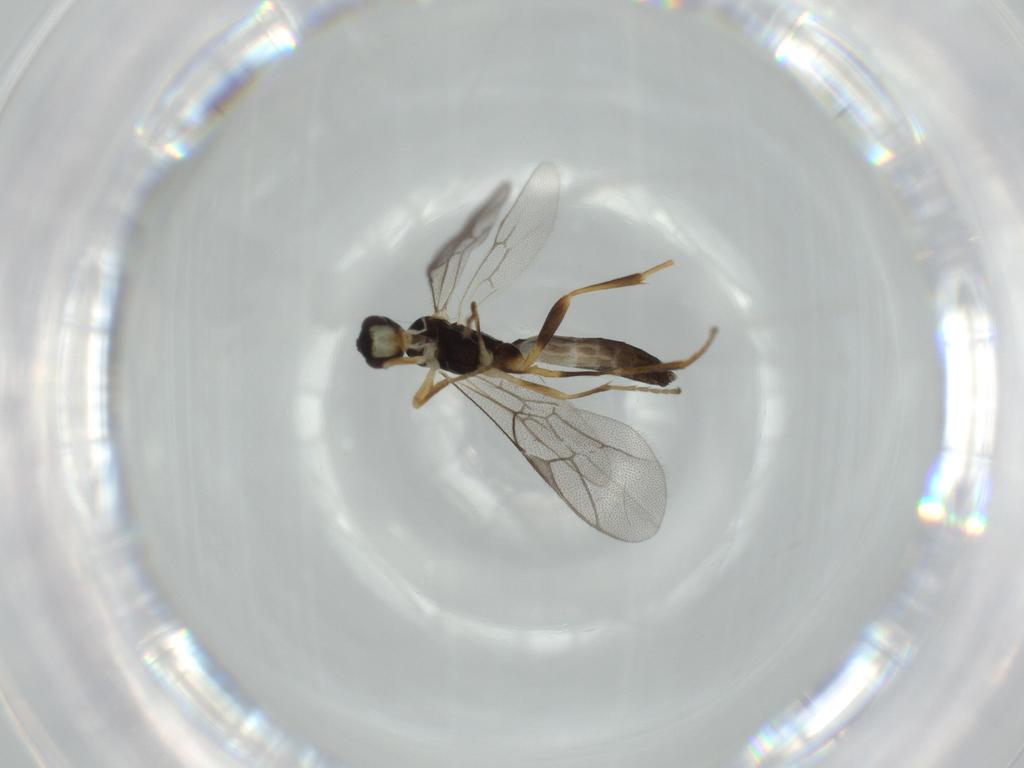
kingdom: Animalia
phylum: Arthropoda
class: Insecta
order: Hymenoptera
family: Ichneumonidae
